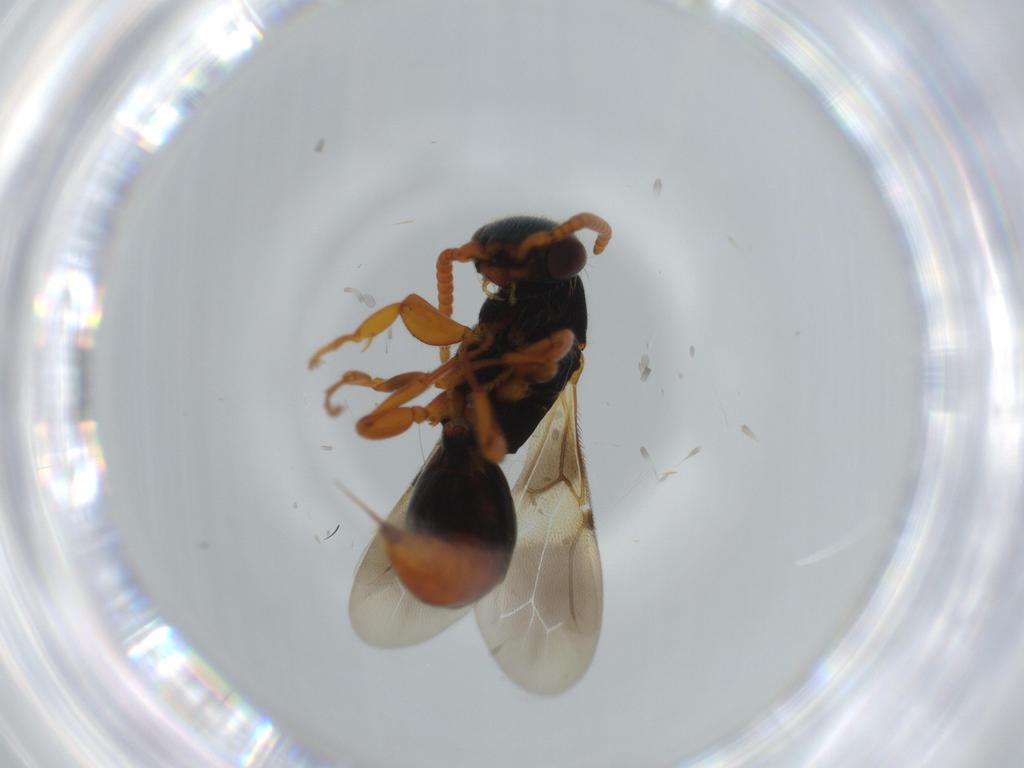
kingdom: Animalia
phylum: Arthropoda
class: Insecta
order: Hymenoptera
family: Bethylidae
